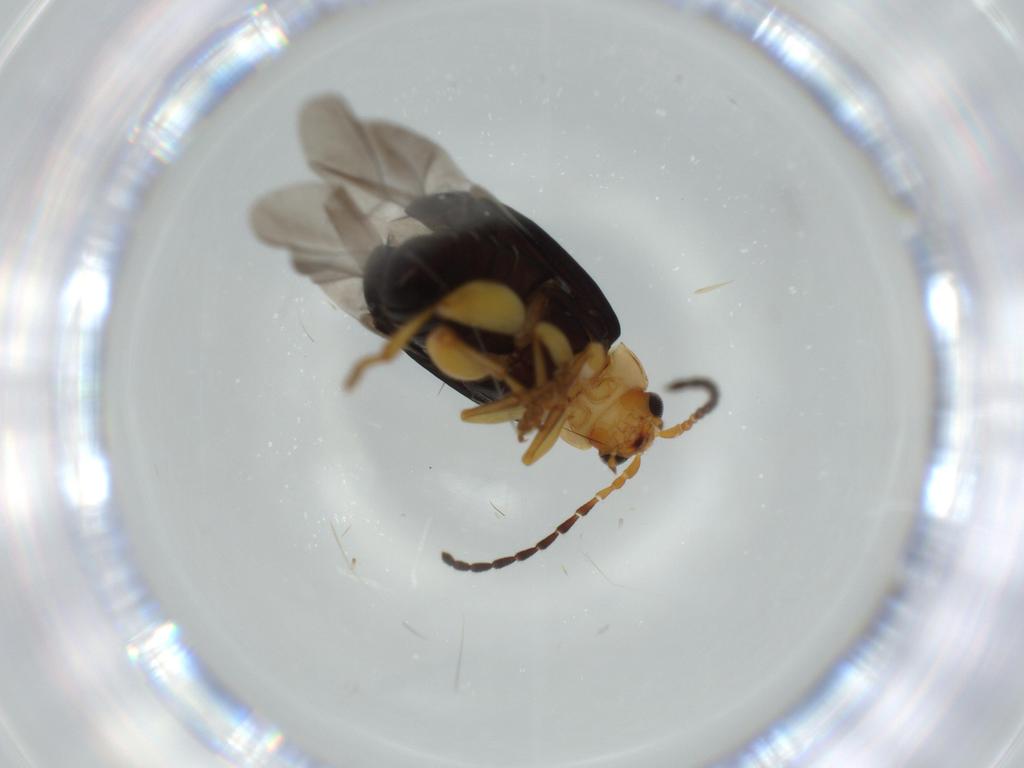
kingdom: Animalia
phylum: Arthropoda
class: Insecta
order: Coleoptera
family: Chrysomelidae
